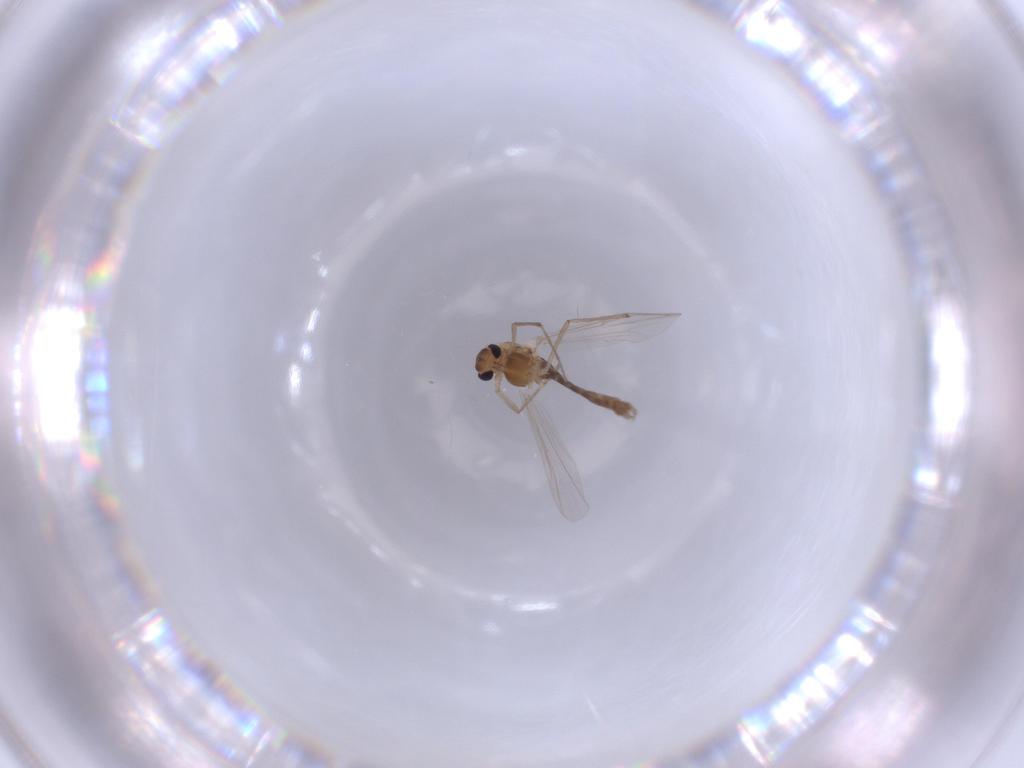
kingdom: Animalia
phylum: Arthropoda
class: Insecta
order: Diptera
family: Chironomidae
